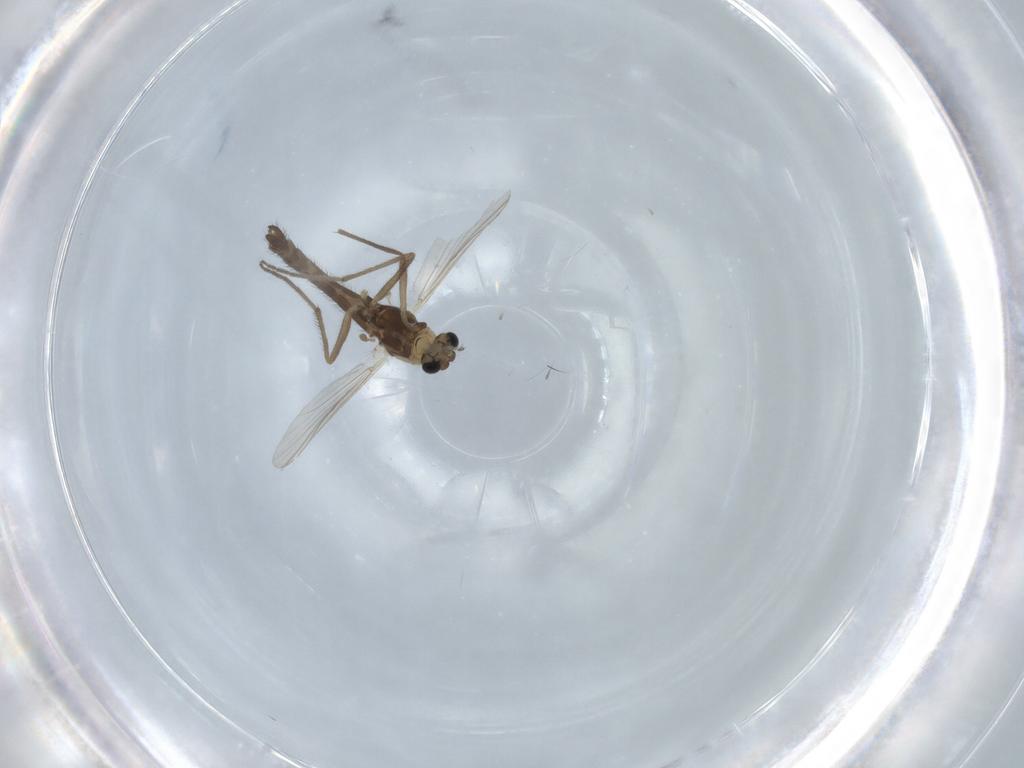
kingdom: Animalia
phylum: Arthropoda
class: Insecta
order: Diptera
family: Chironomidae
